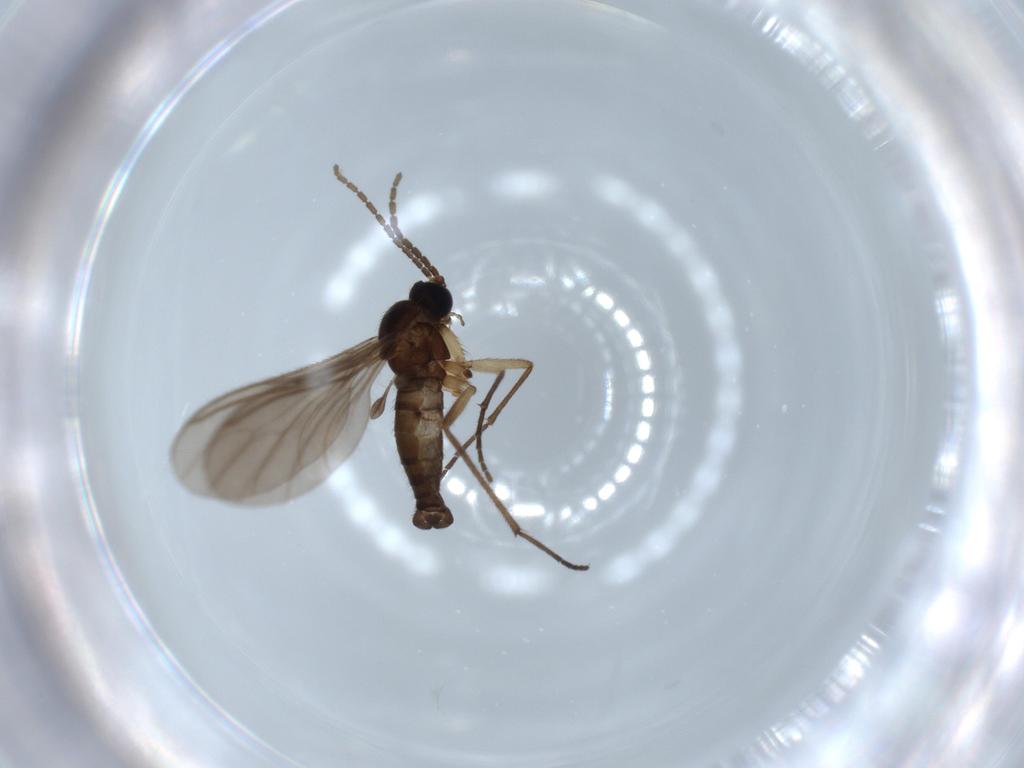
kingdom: Animalia
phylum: Arthropoda
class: Insecta
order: Diptera
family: Sciaridae
